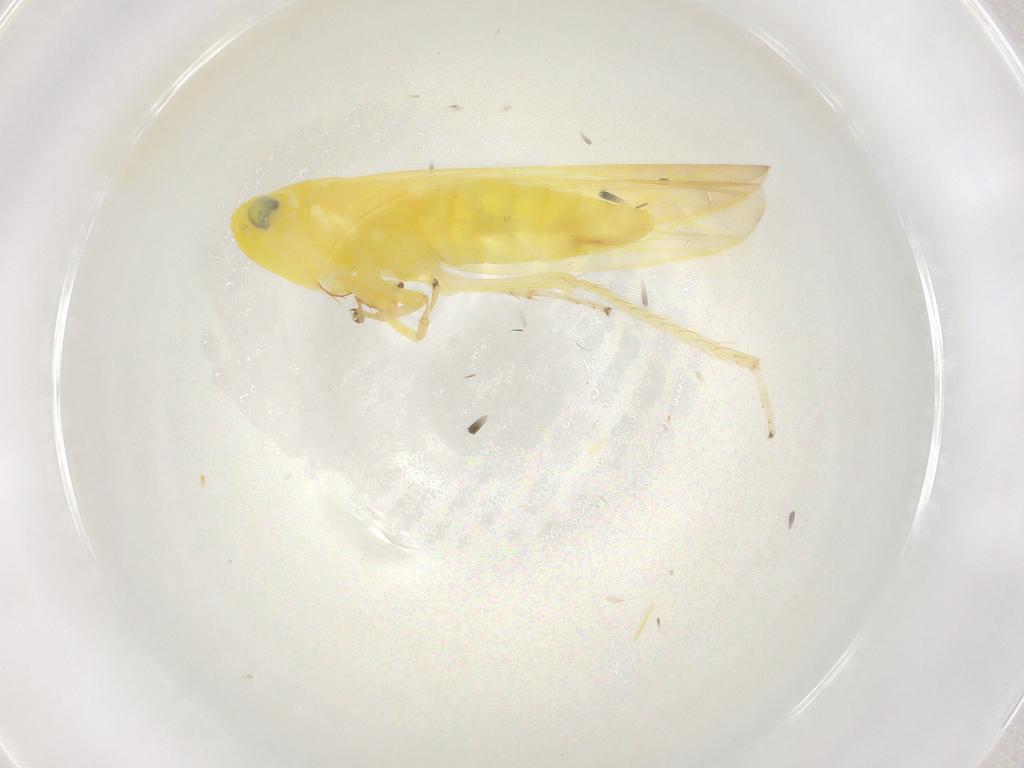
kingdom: Animalia
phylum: Arthropoda
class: Insecta
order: Hemiptera
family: Cicadellidae
